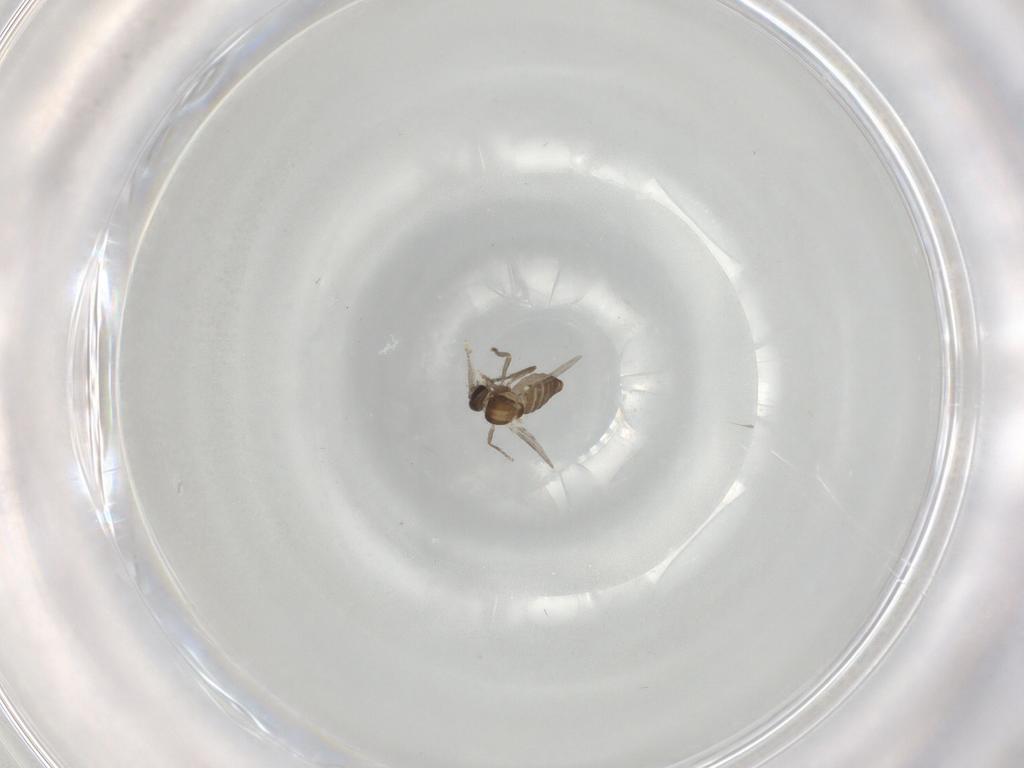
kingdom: Animalia
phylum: Arthropoda
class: Insecta
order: Diptera
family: Ceratopogonidae
